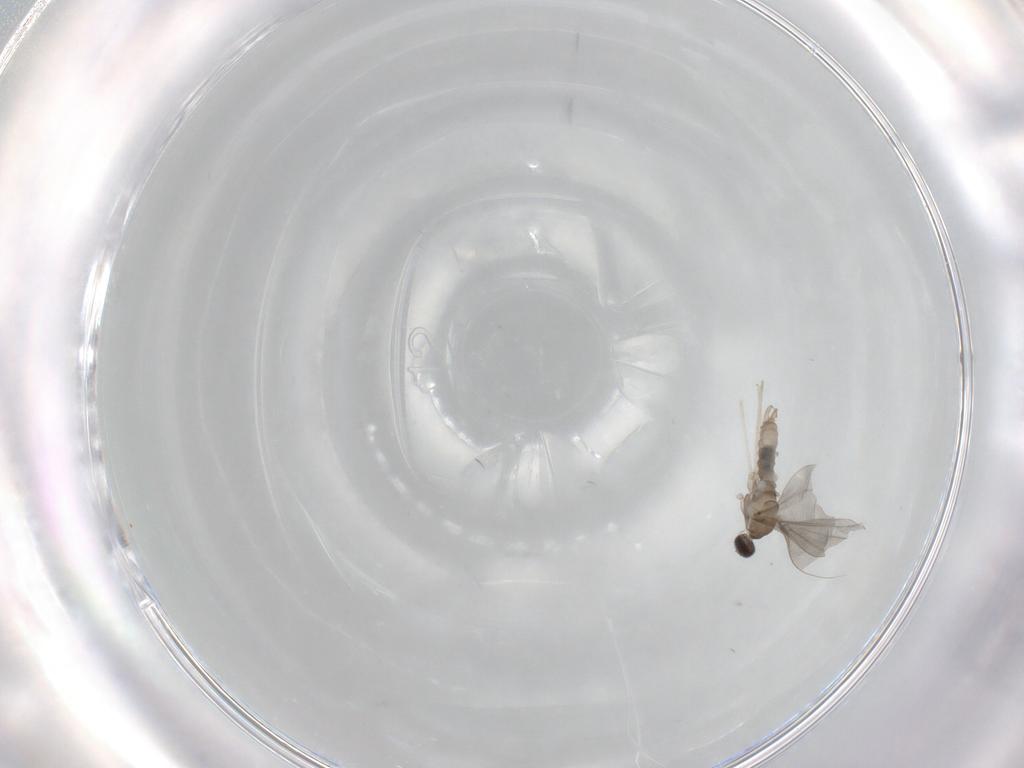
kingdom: Animalia
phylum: Arthropoda
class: Insecta
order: Diptera
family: Cecidomyiidae
